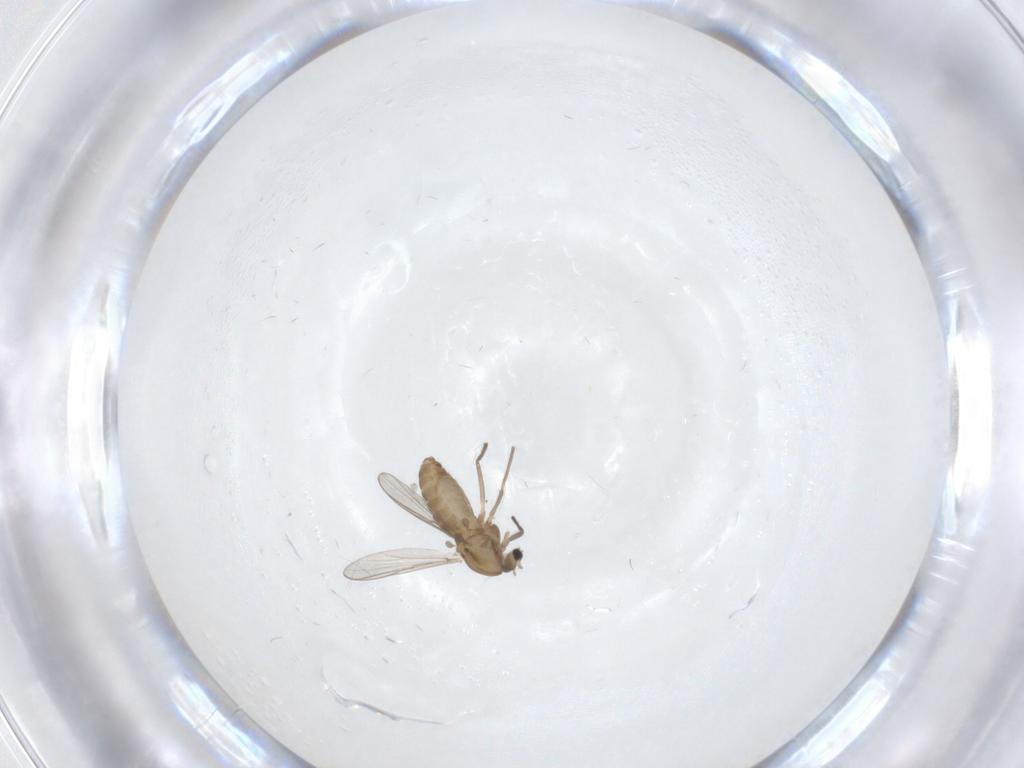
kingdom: Animalia
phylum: Arthropoda
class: Insecta
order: Diptera
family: Chironomidae
